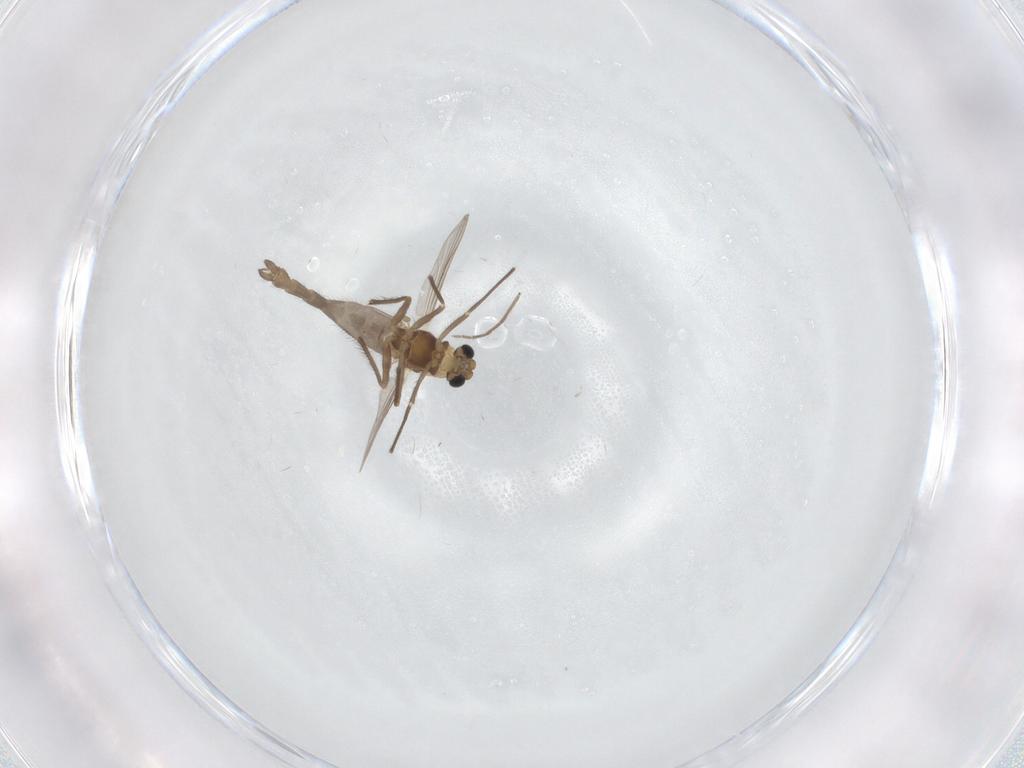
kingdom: Animalia
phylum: Arthropoda
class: Insecta
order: Diptera
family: Chironomidae
